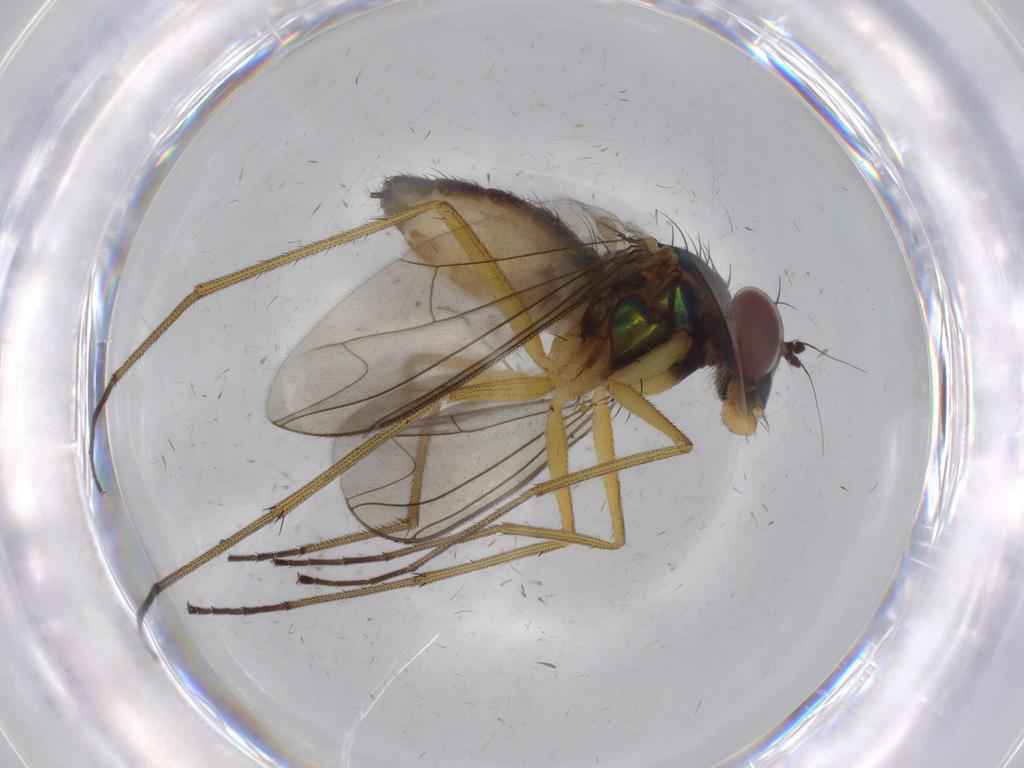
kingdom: Animalia
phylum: Arthropoda
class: Insecta
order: Diptera
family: Dolichopodidae
